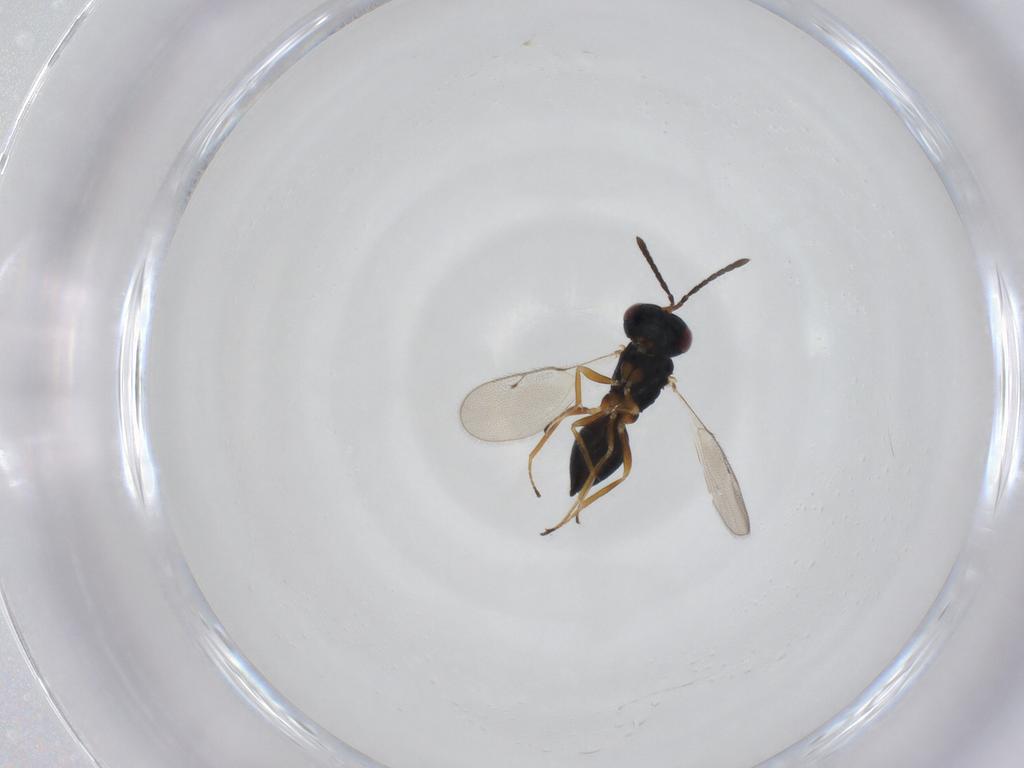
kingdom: Animalia
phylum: Arthropoda
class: Insecta
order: Hymenoptera
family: Pteromalidae
